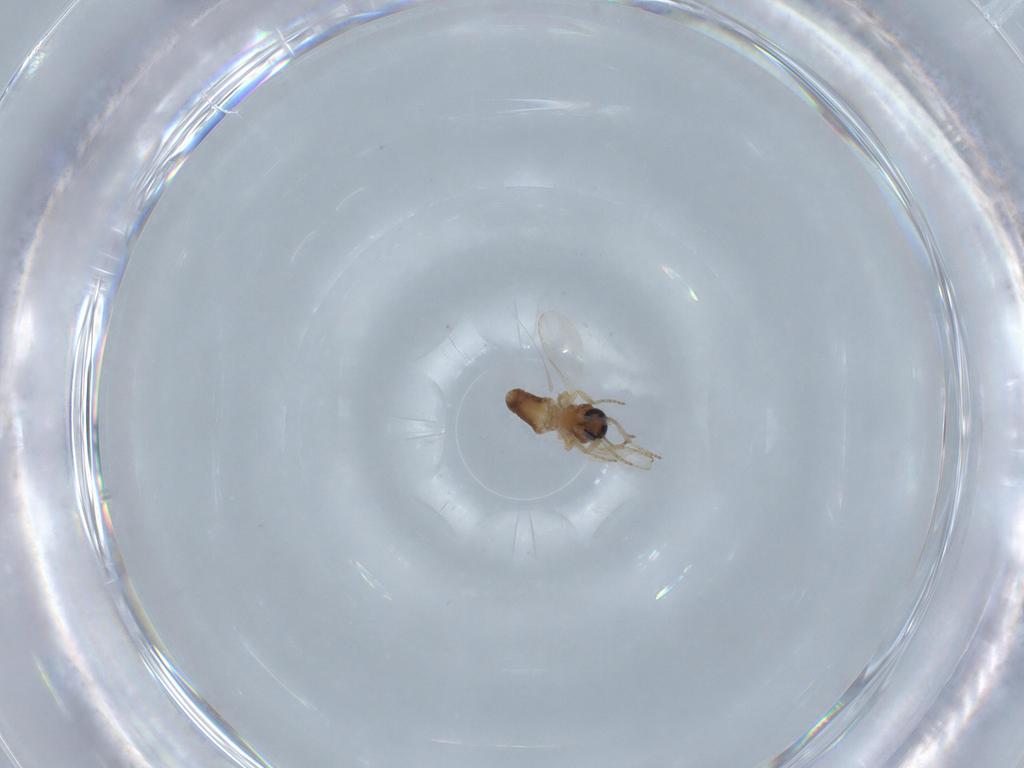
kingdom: Animalia
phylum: Arthropoda
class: Insecta
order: Diptera
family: Ceratopogonidae
